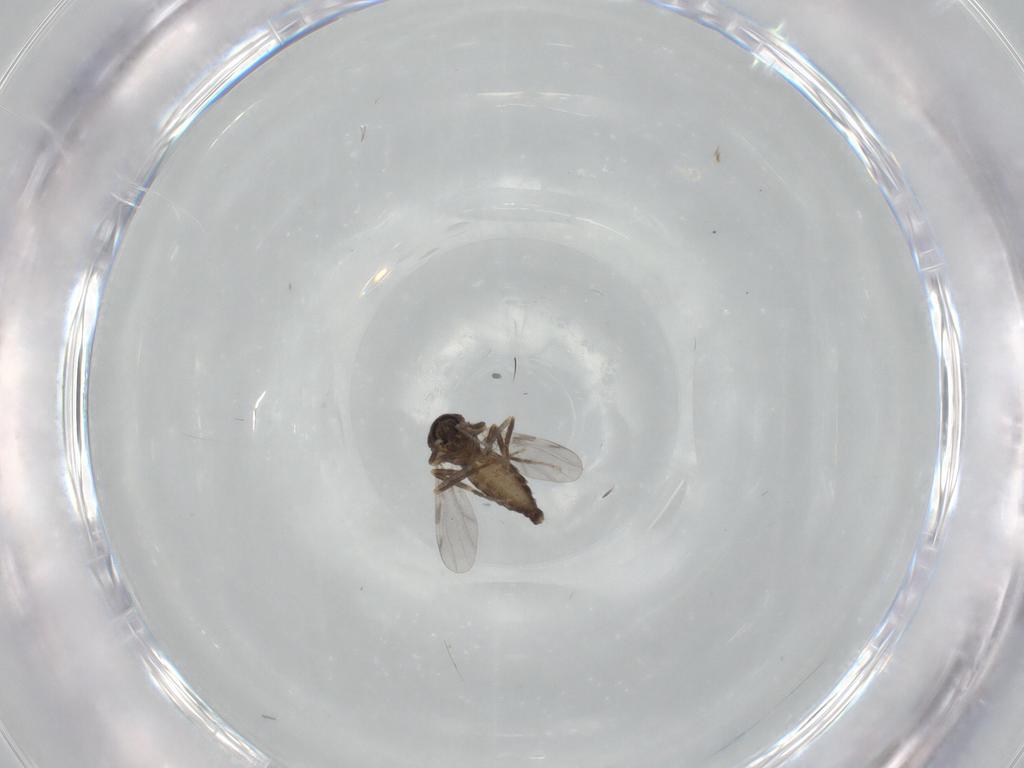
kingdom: Animalia
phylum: Arthropoda
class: Insecta
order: Diptera
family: Ceratopogonidae
